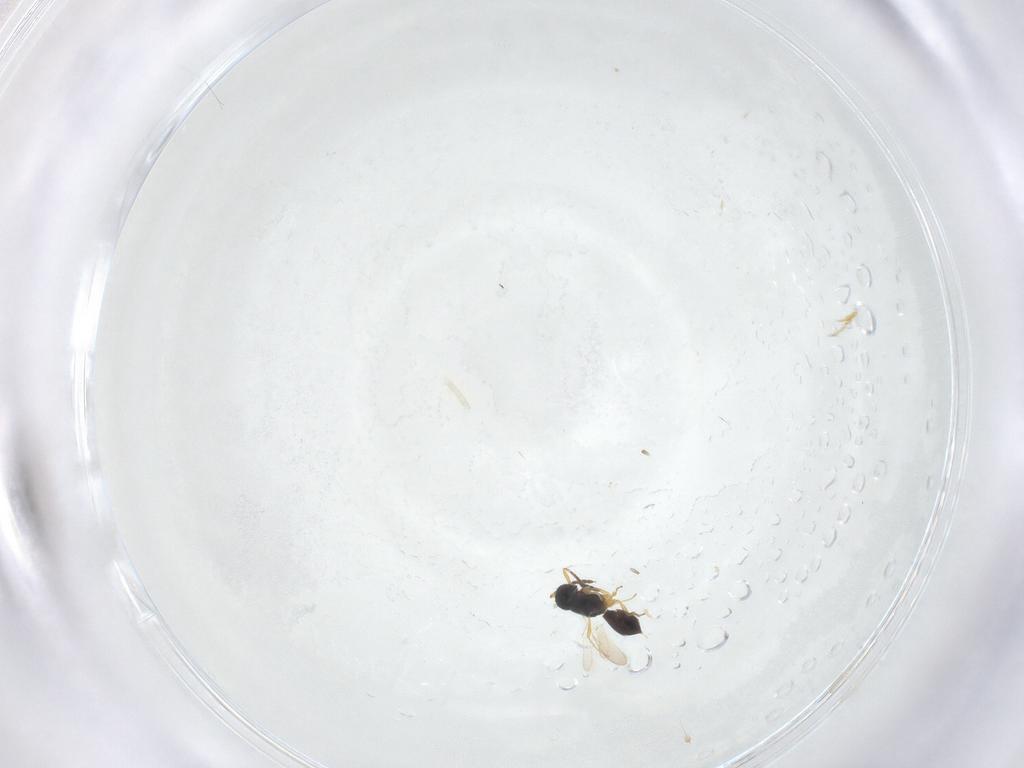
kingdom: Animalia
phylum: Arthropoda
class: Insecta
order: Hymenoptera
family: Scelionidae
